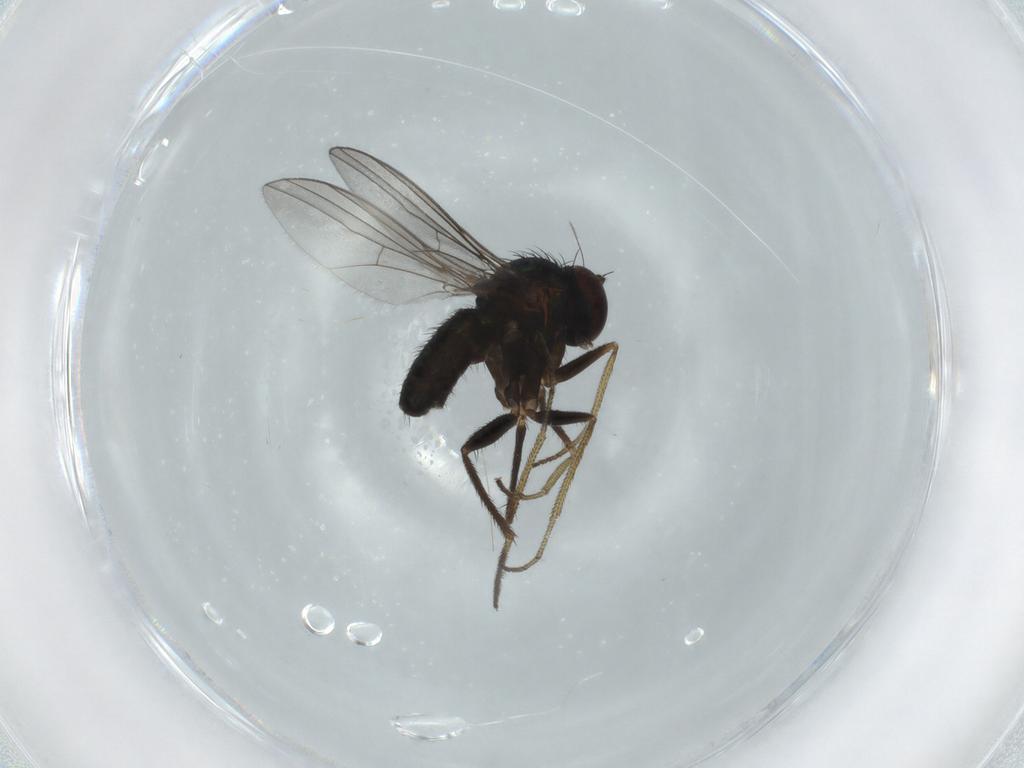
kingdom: Animalia
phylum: Arthropoda
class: Insecta
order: Diptera
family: Dolichopodidae
